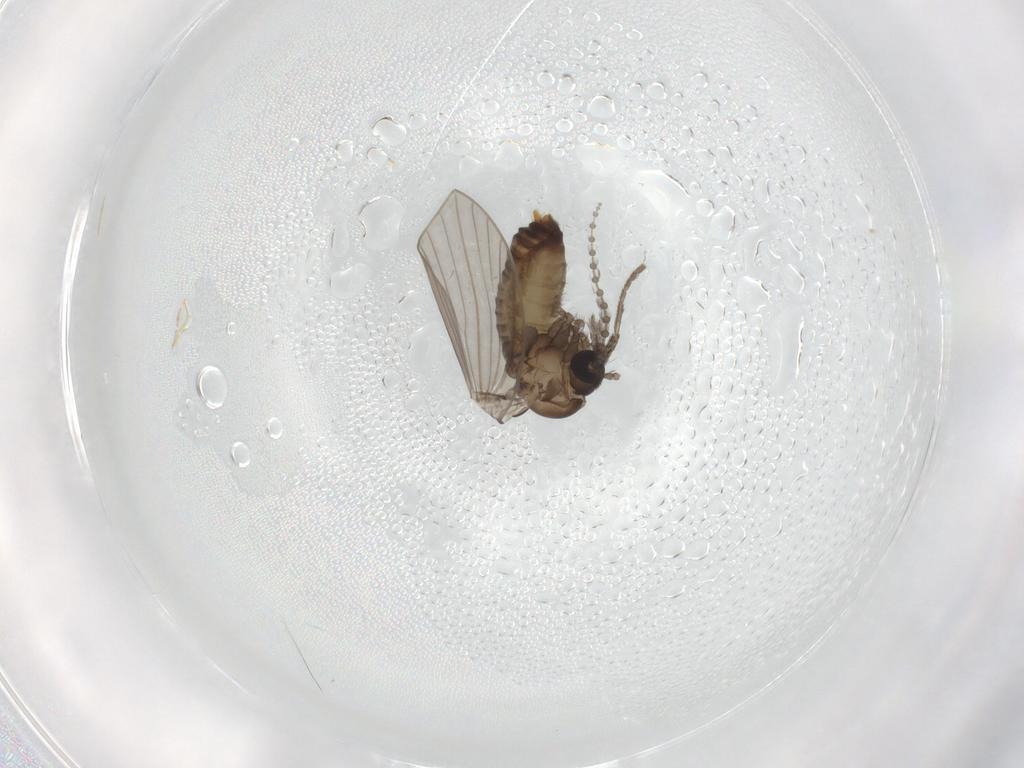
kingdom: Animalia
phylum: Arthropoda
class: Insecta
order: Diptera
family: Psychodidae
